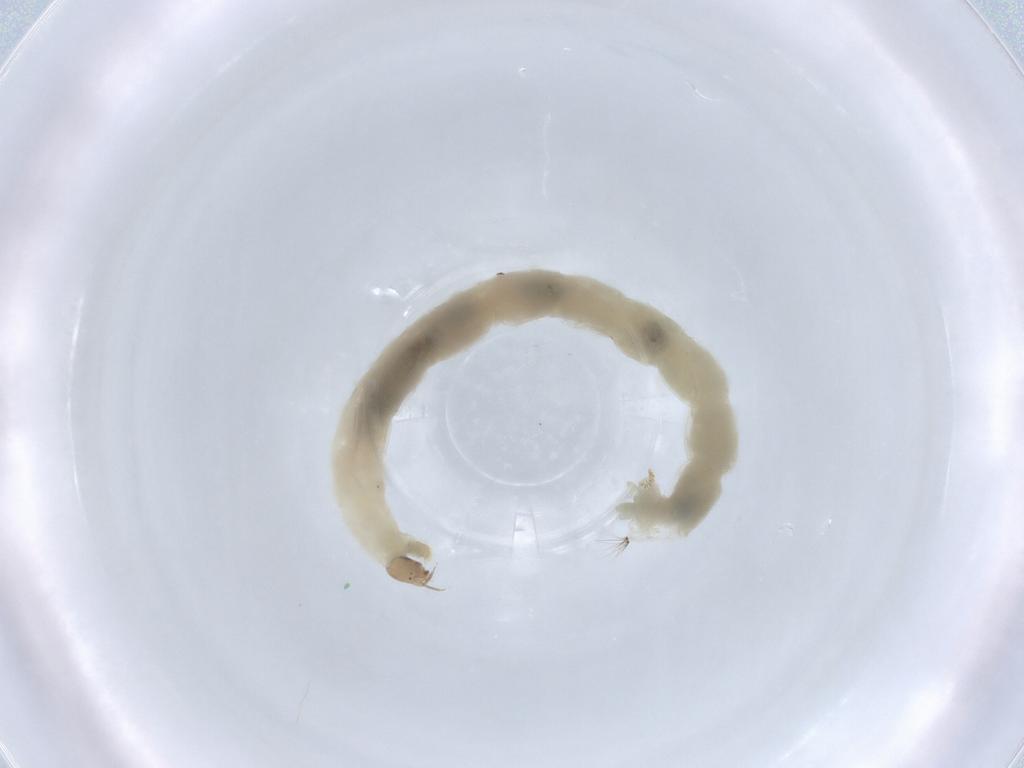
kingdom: Animalia
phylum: Arthropoda
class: Insecta
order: Diptera
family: Chironomidae
